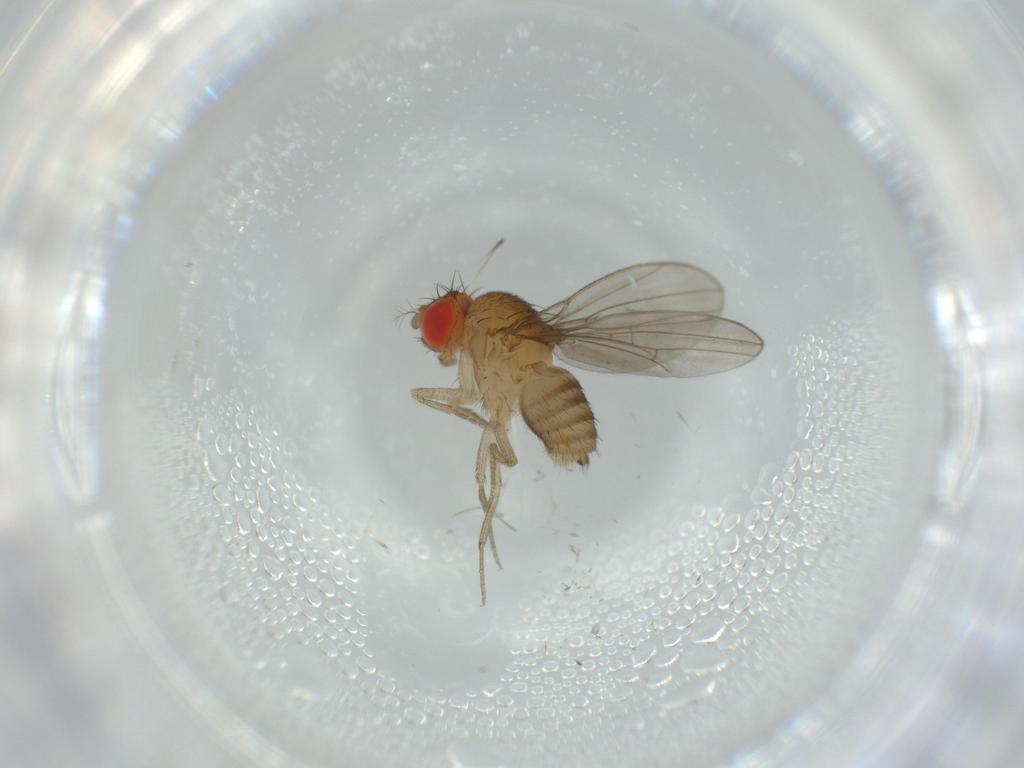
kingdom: Animalia
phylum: Arthropoda
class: Insecta
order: Diptera
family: Drosophilidae
